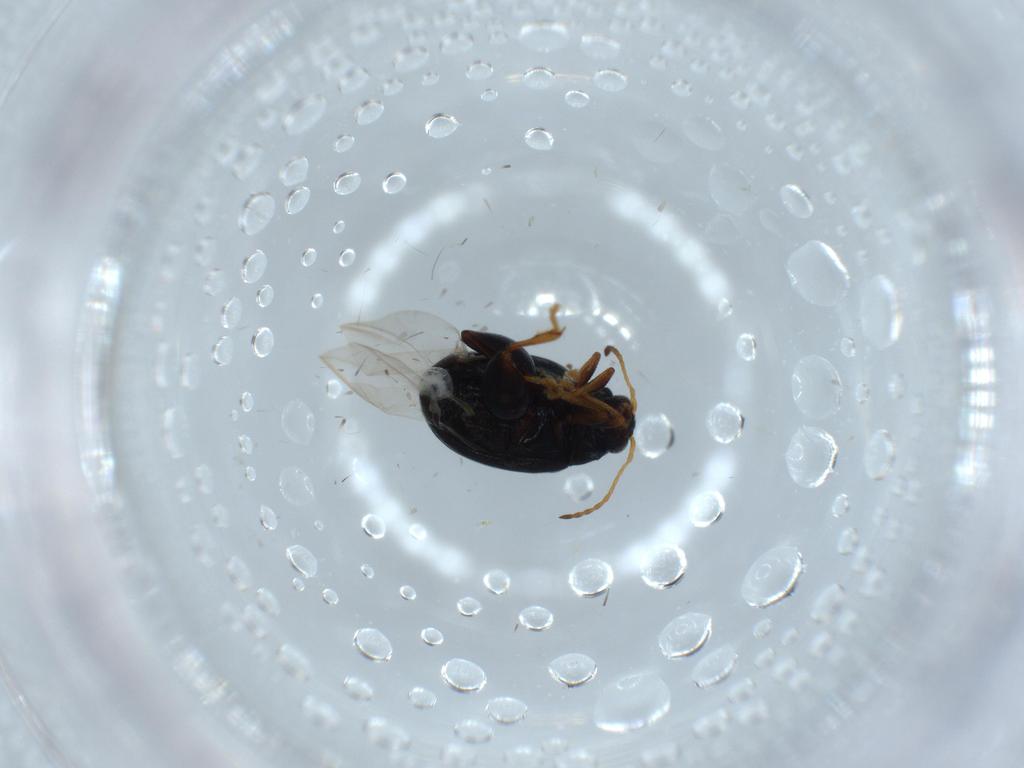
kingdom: Animalia
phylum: Arthropoda
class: Insecta
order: Coleoptera
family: Chrysomelidae
